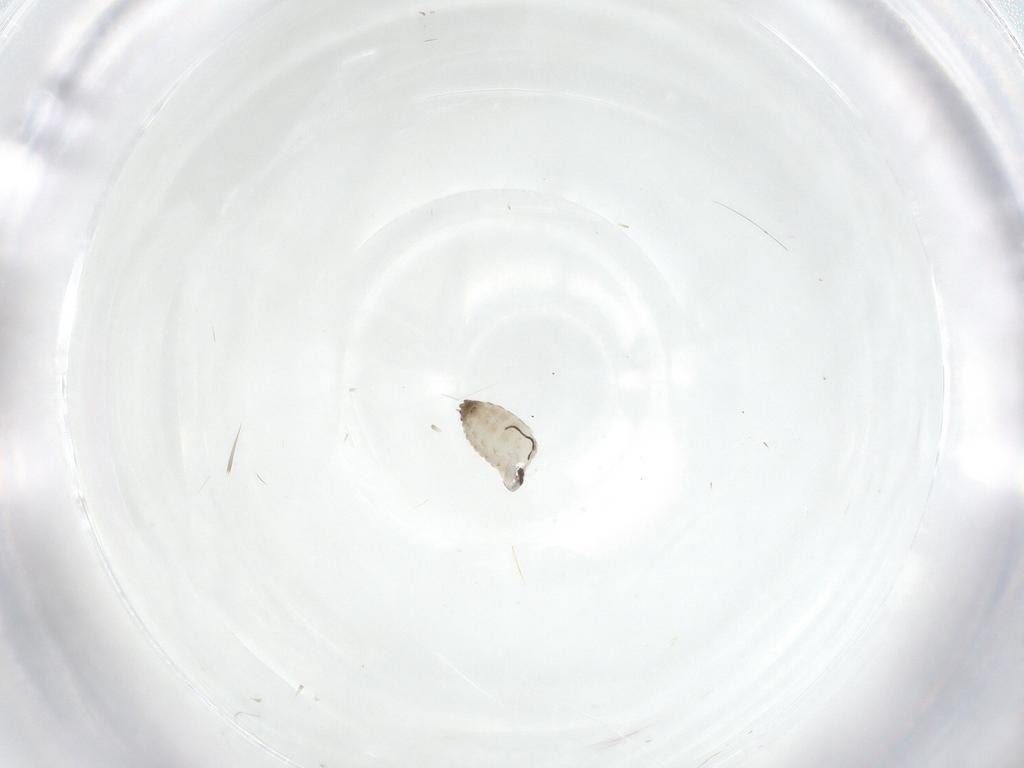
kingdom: Animalia
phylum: Arthropoda
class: Insecta
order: Diptera
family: Psychodidae
